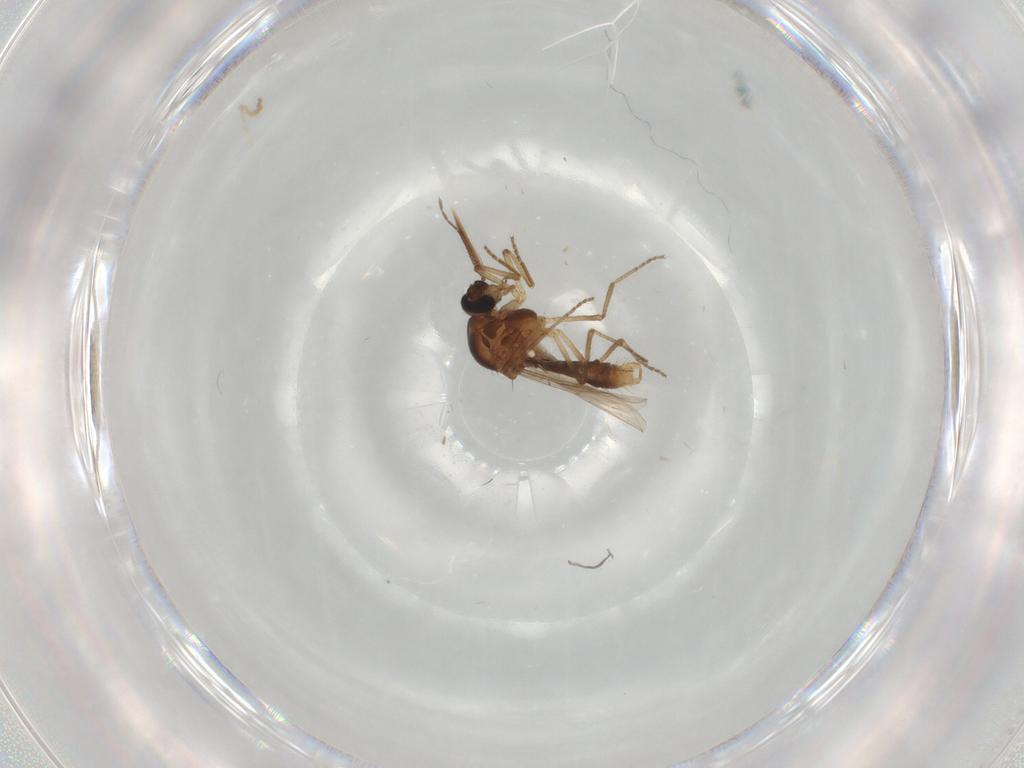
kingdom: Animalia
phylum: Arthropoda
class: Insecta
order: Diptera
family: Ceratopogonidae
